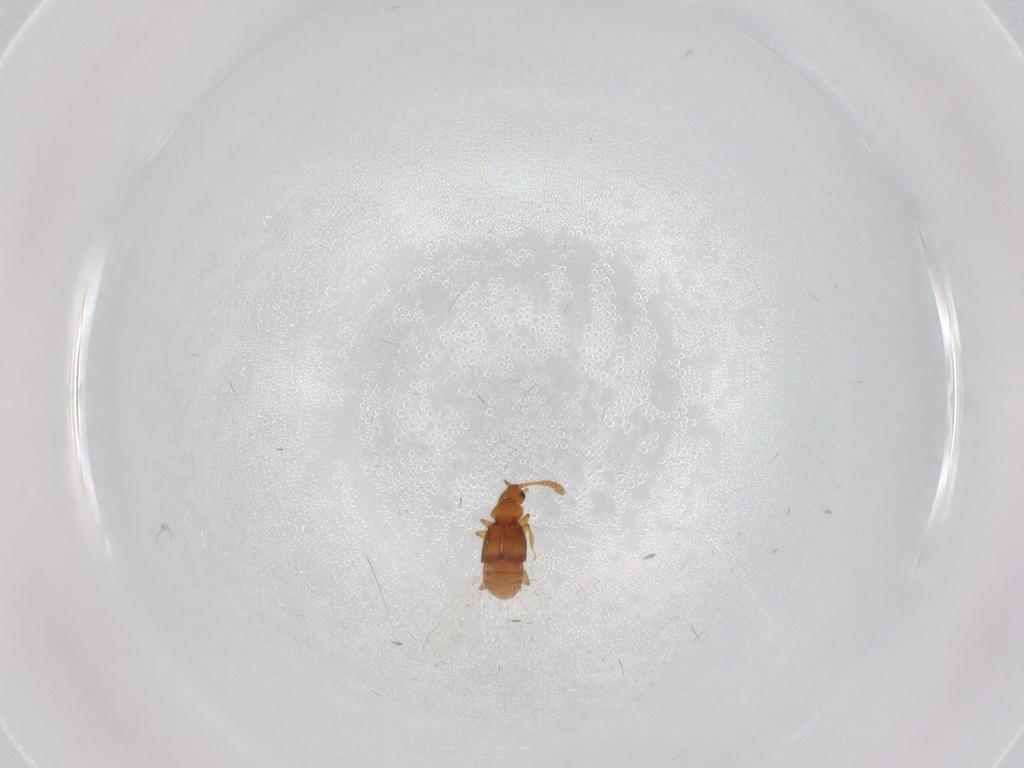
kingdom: Animalia
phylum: Arthropoda
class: Insecta
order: Coleoptera
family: Staphylinidae
